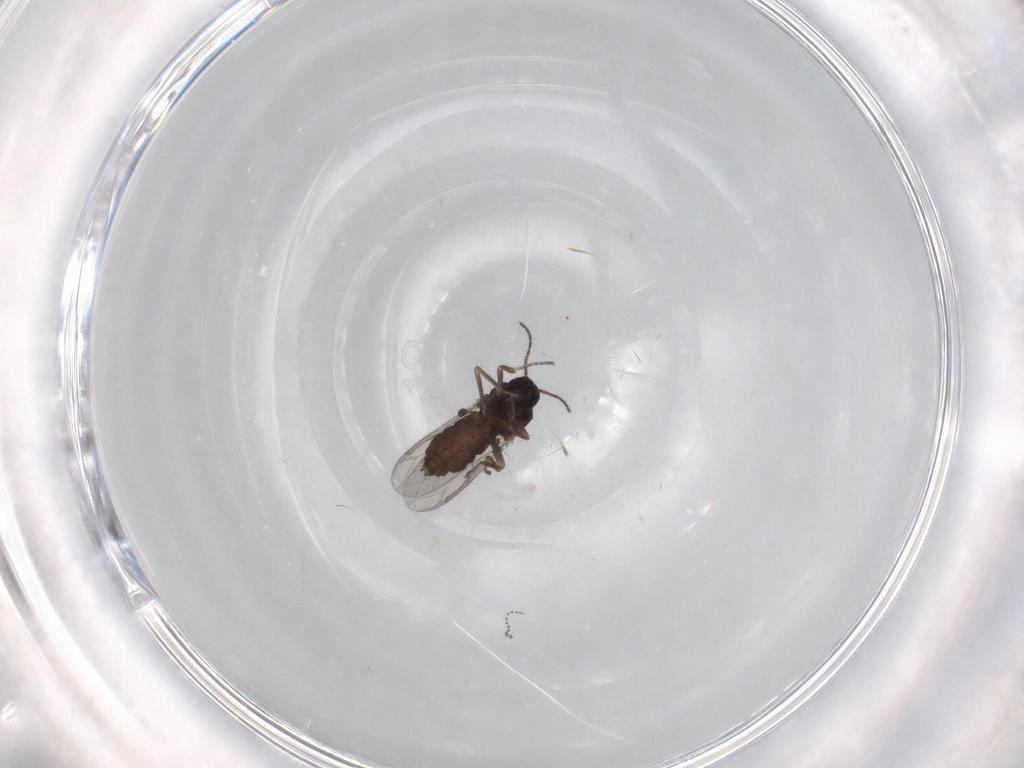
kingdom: Animalia
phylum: Arthropoda
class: Insecta
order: Diptera
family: Ceratopogonidae
